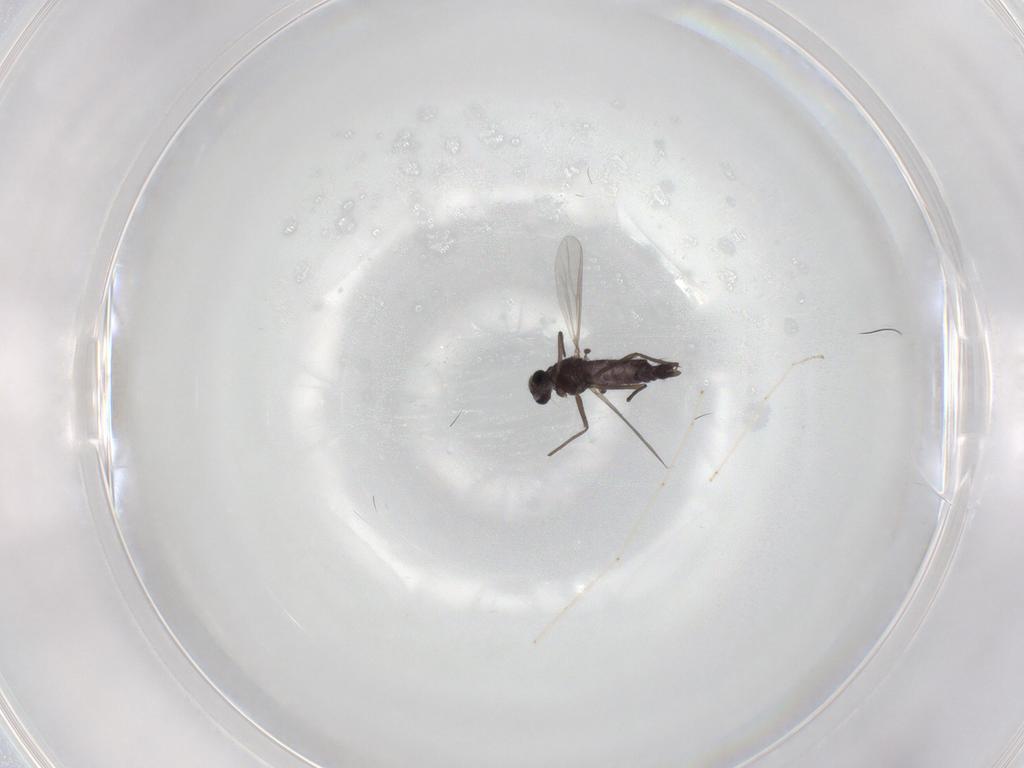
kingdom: Animalia
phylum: Arthropoda
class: Insecta
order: Diptera
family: Chironomidae
